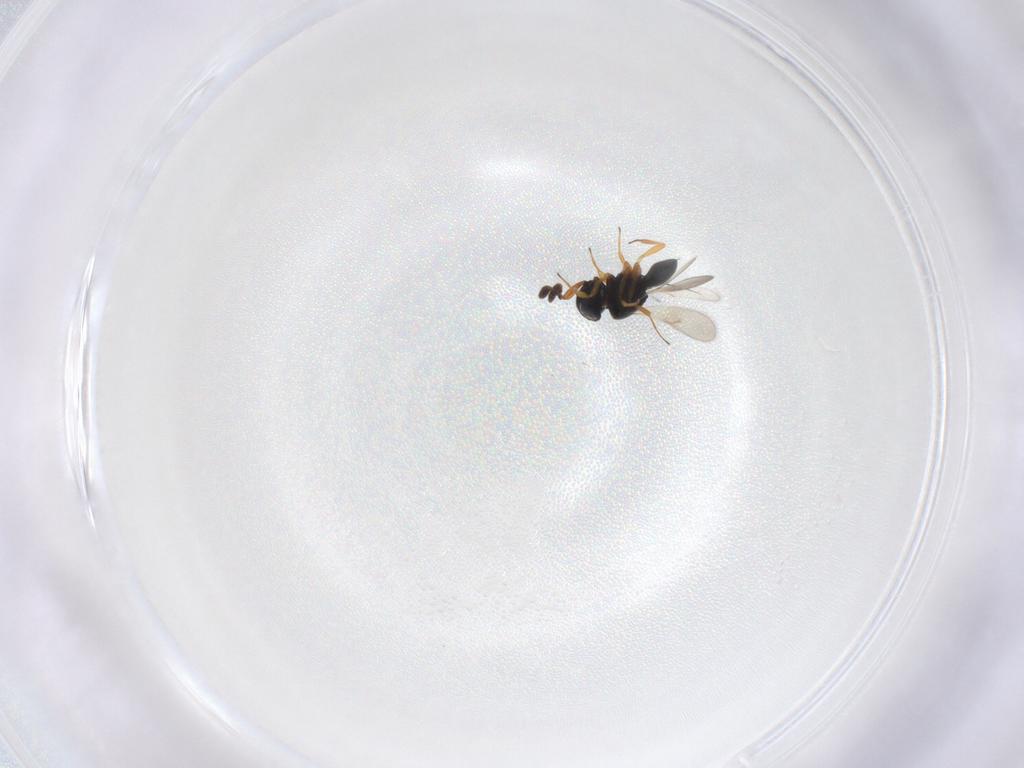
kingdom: Animalia
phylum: Arthropoda
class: Insecta
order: Hymenoptera
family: Scelionidae
